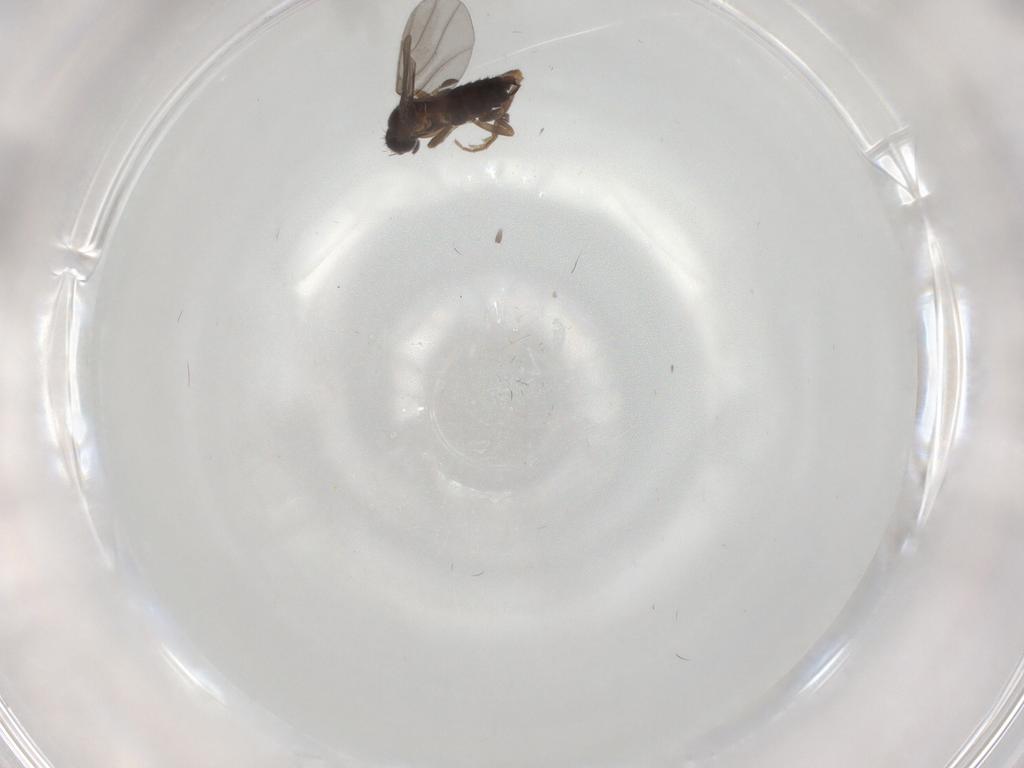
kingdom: Animalia
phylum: Arthropoda
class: Insecta
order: Diptera
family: Phoridae
